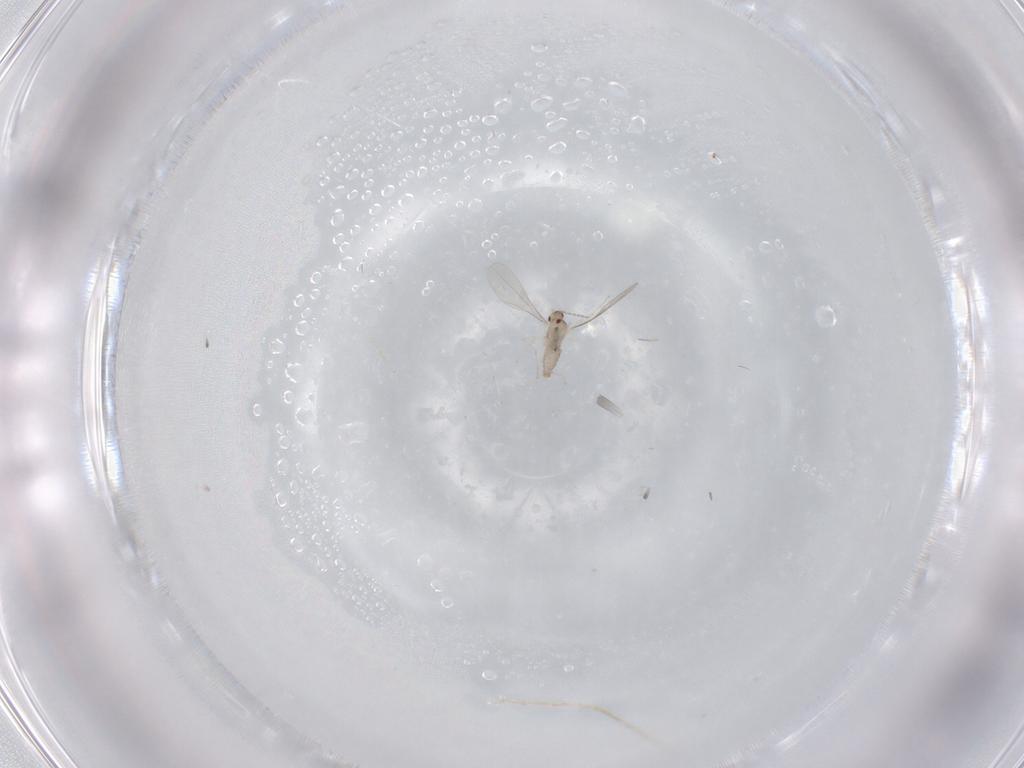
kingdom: Animalia
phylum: Arthropoda
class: Insecta
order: Diptera
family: Cecidomyiidae
